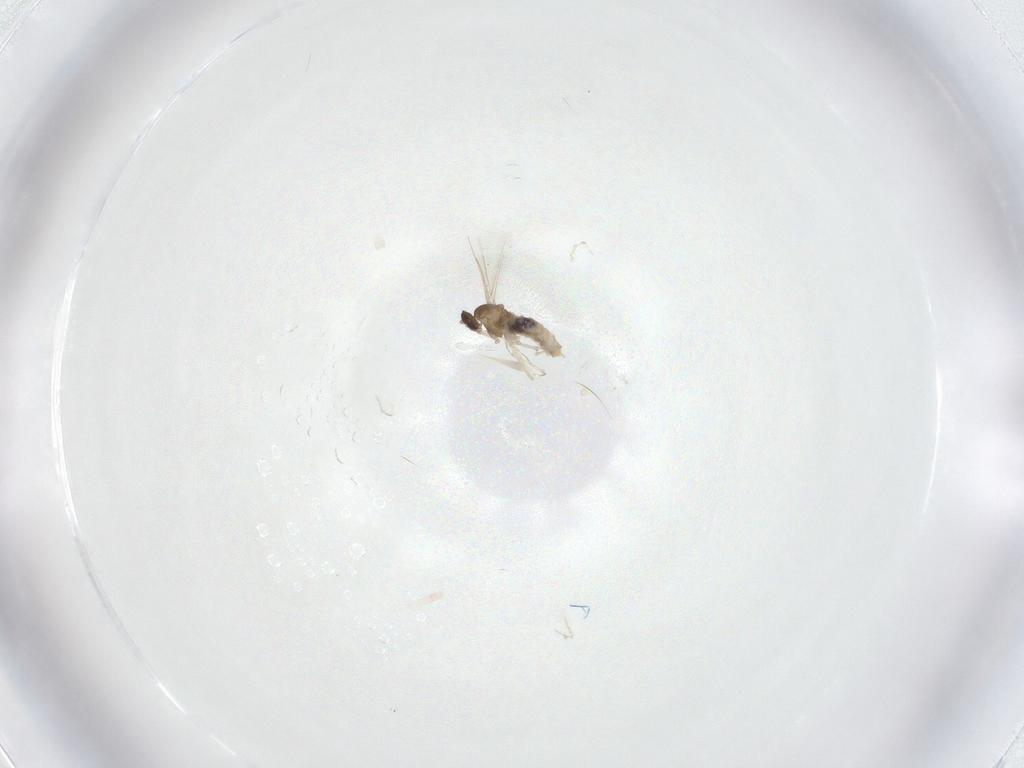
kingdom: Animalia
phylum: Arthropoda
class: Insecta
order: Diptera
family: Cecidomyiidae
